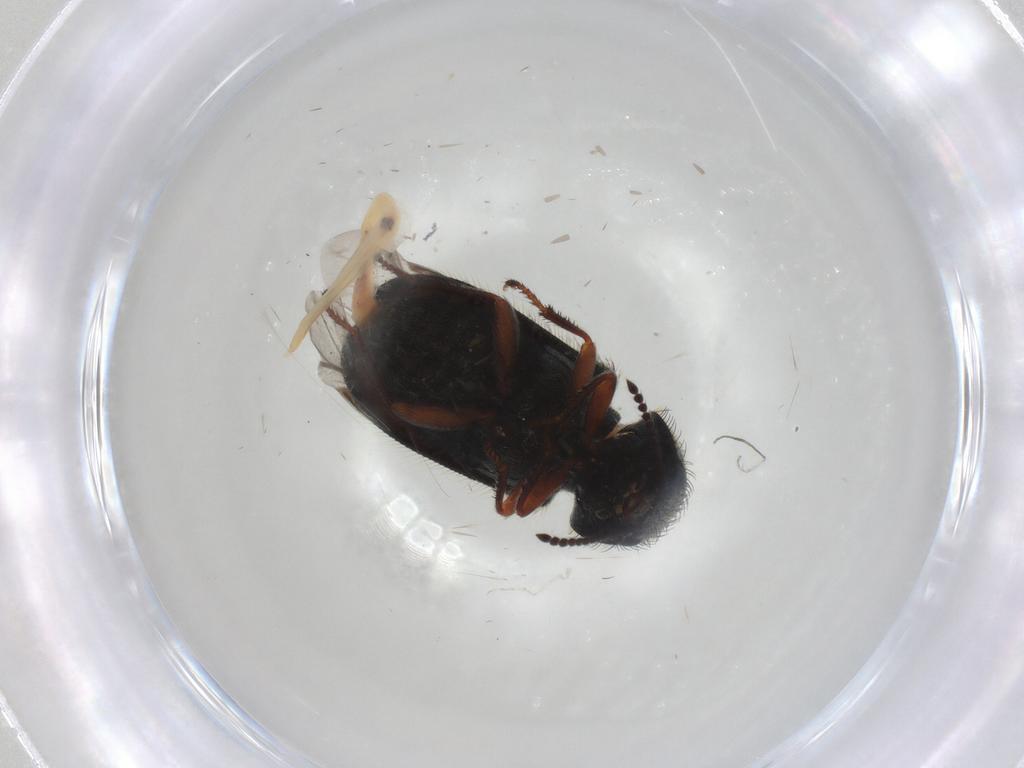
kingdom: Animalia
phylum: Arthropoda
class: Insecta
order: Coleoptera
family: Melyridae
